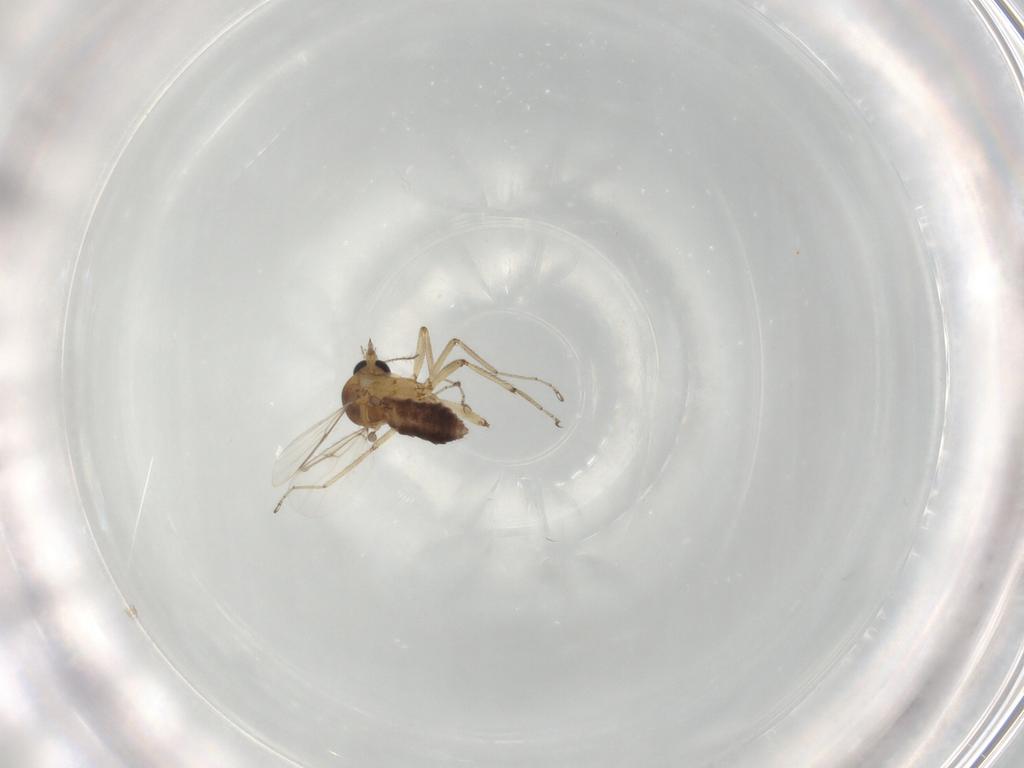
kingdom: Animalia
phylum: Arthropoda
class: Insecta
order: Diptera
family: Ceratopogonidae
